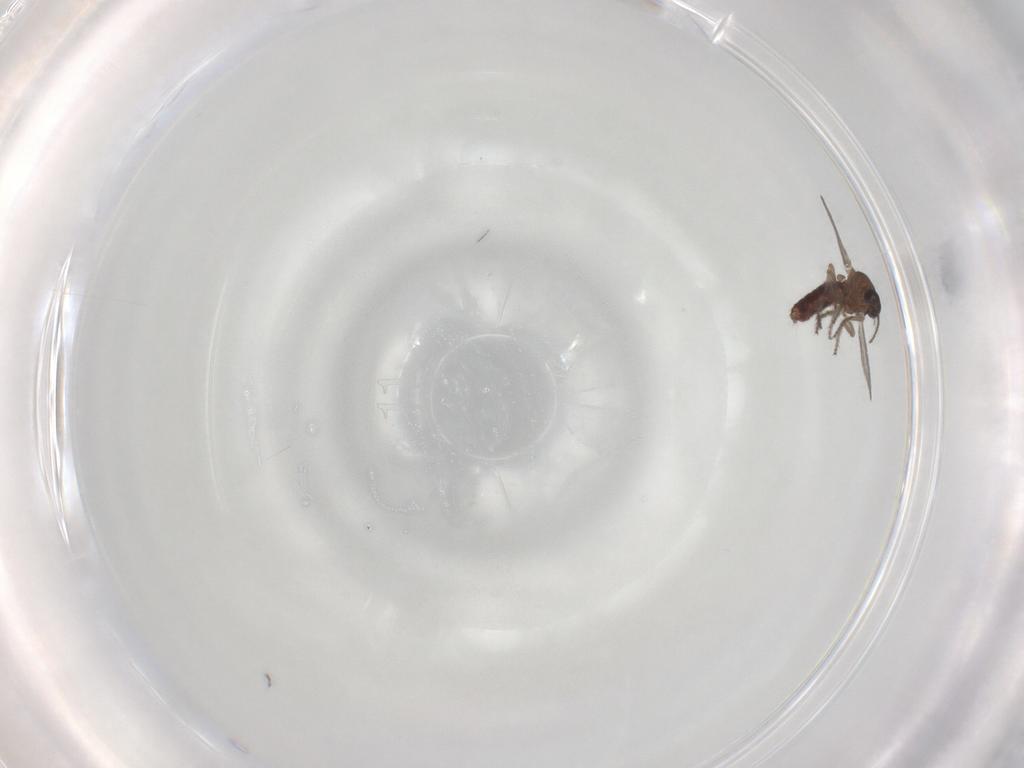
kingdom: Animalia
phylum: Arthropoda
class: Insecta
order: Diptera
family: Ceratopogonidae
